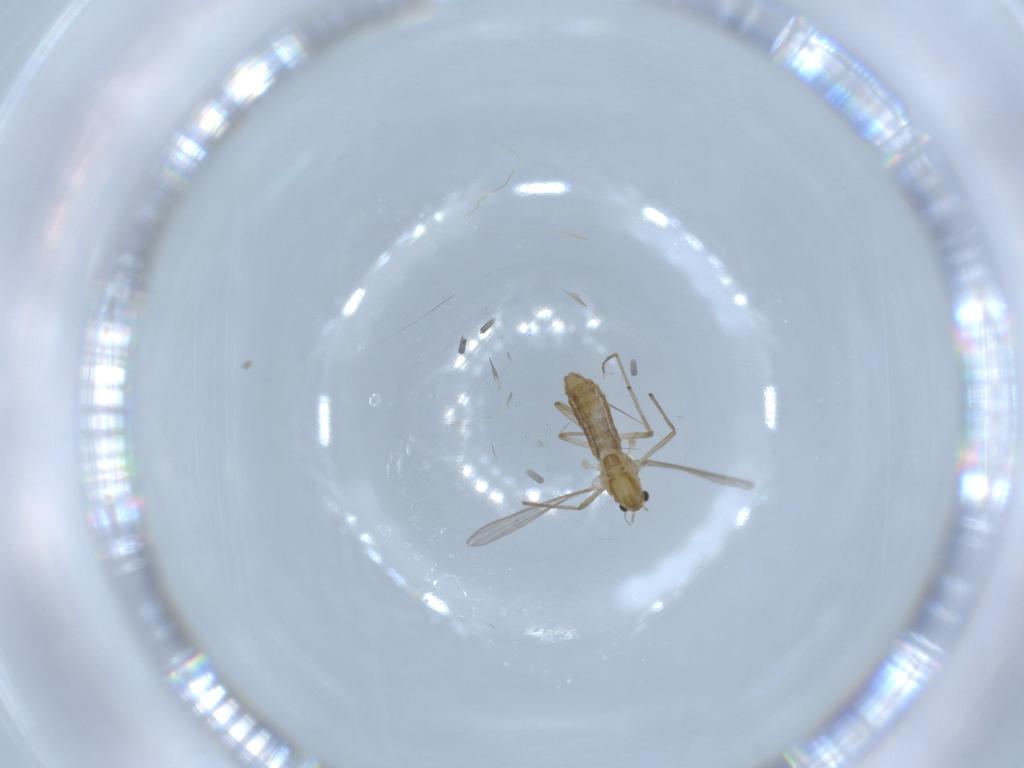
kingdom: Animalia
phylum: Arthropoda
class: Insecta
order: Diptera
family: Chironomidae
